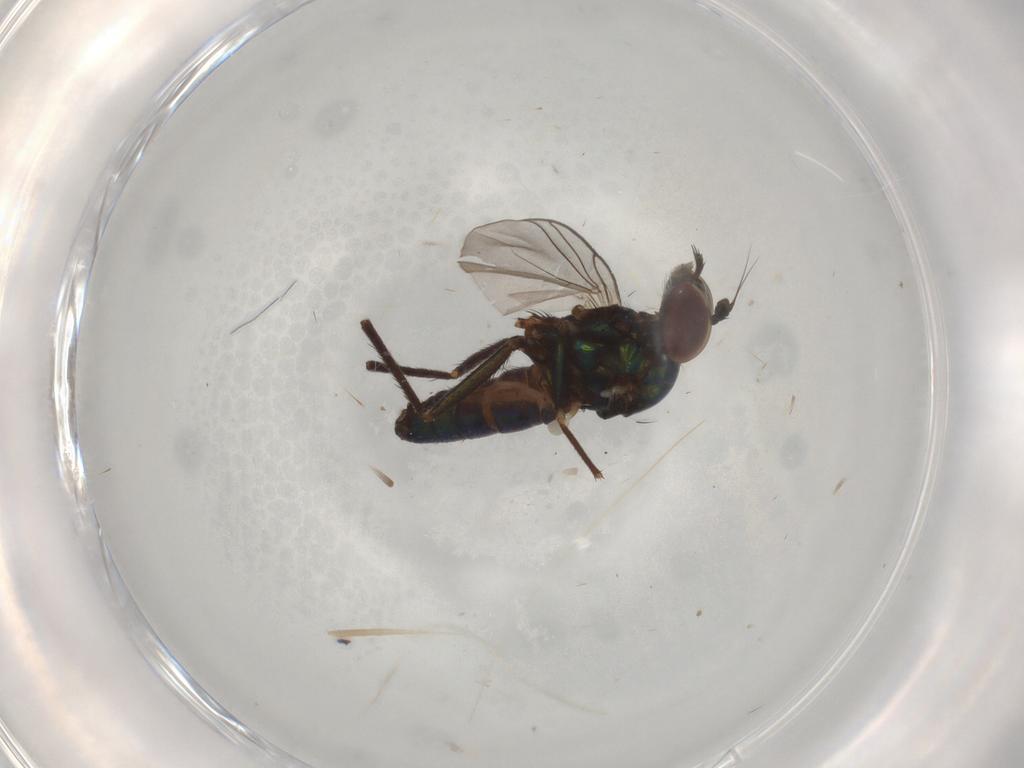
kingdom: Animalia
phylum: Arthropoda
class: Insecta
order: Diptera
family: Dolichopodidae
